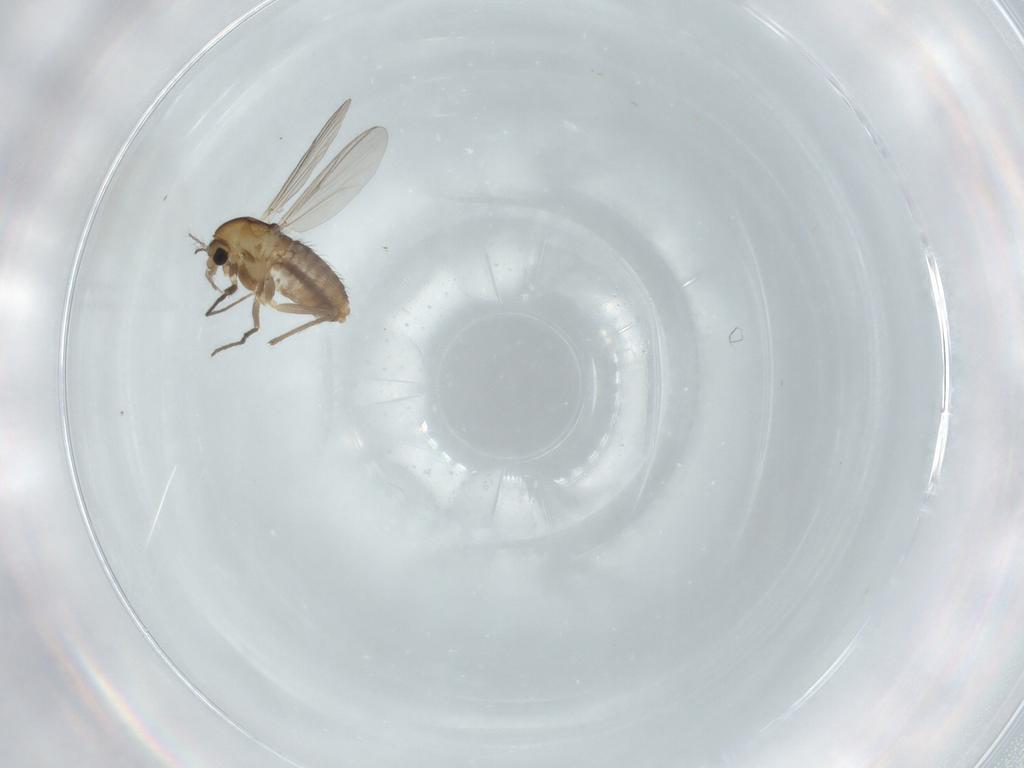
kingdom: Animalia
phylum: Arthropoda
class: Insecta
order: Diptera
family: Chironomidae
